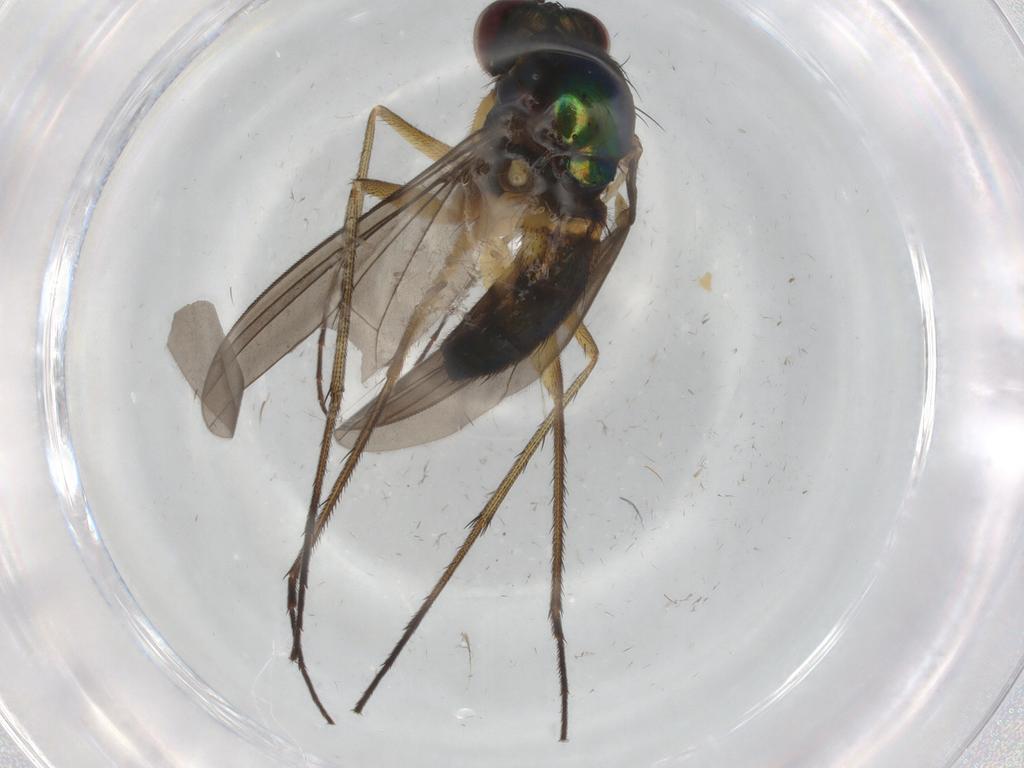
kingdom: Animalia
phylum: Arthropoda
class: Insecta
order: Diptera
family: Dolichopodidae
